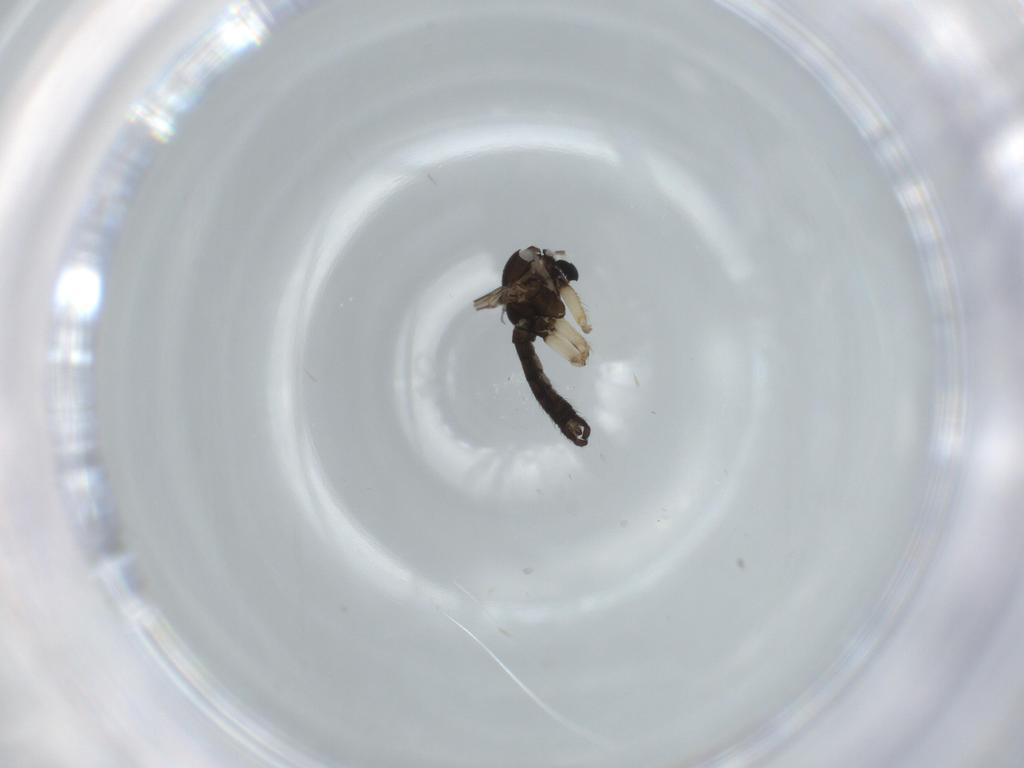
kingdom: Animalia
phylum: Arthropoda
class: Insecta
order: Diptera
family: Sciaridae
